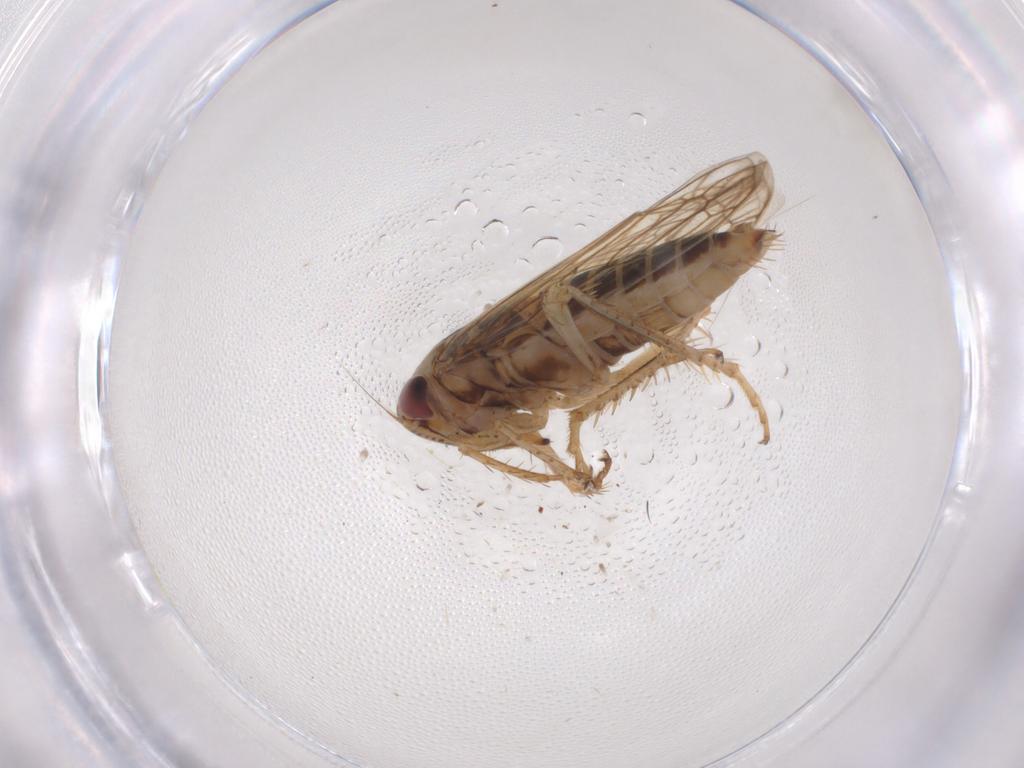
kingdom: Animalia
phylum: Arthropoda
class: Insecta
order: Hemiptera
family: Cicadellidae
